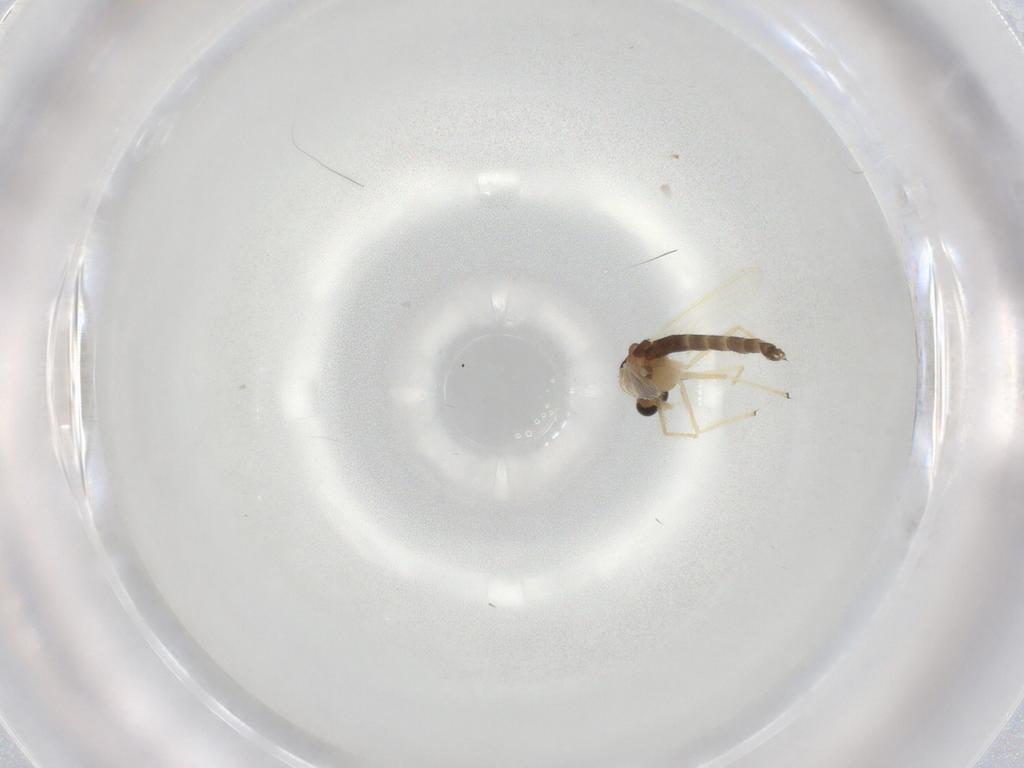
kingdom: Animalia
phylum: Arthropoda
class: Insecta
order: Diptera
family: Chironomidae
